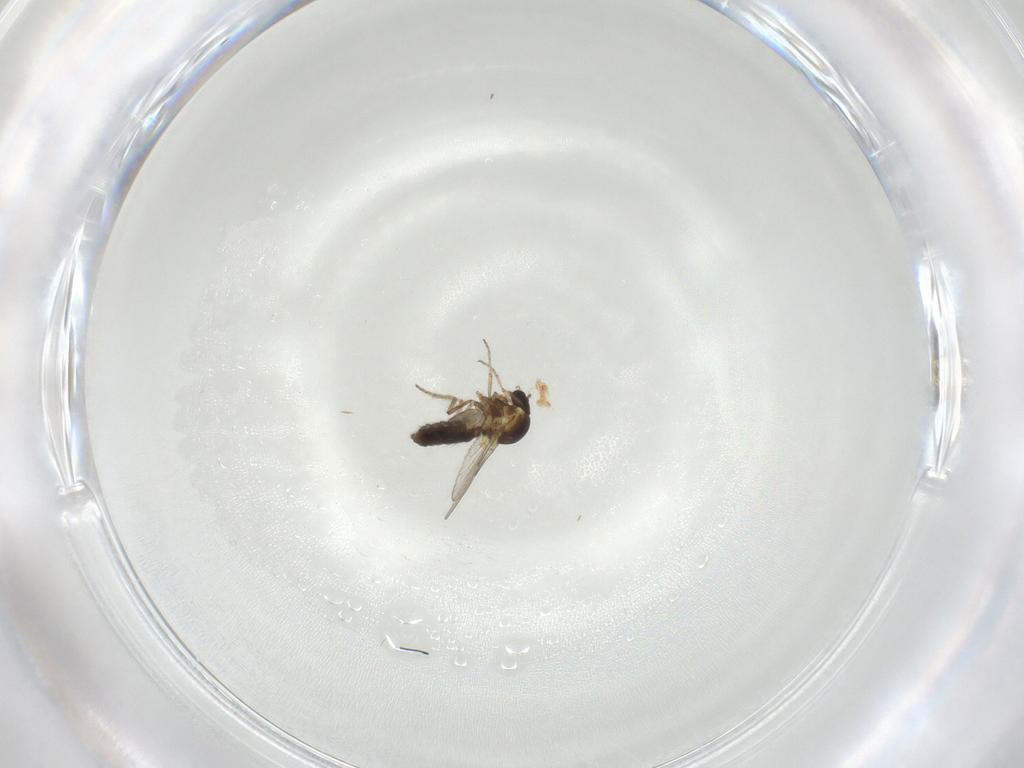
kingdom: Animalia
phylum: Arthropoda
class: Insecta
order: Diptera
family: Ceratopogonidae
